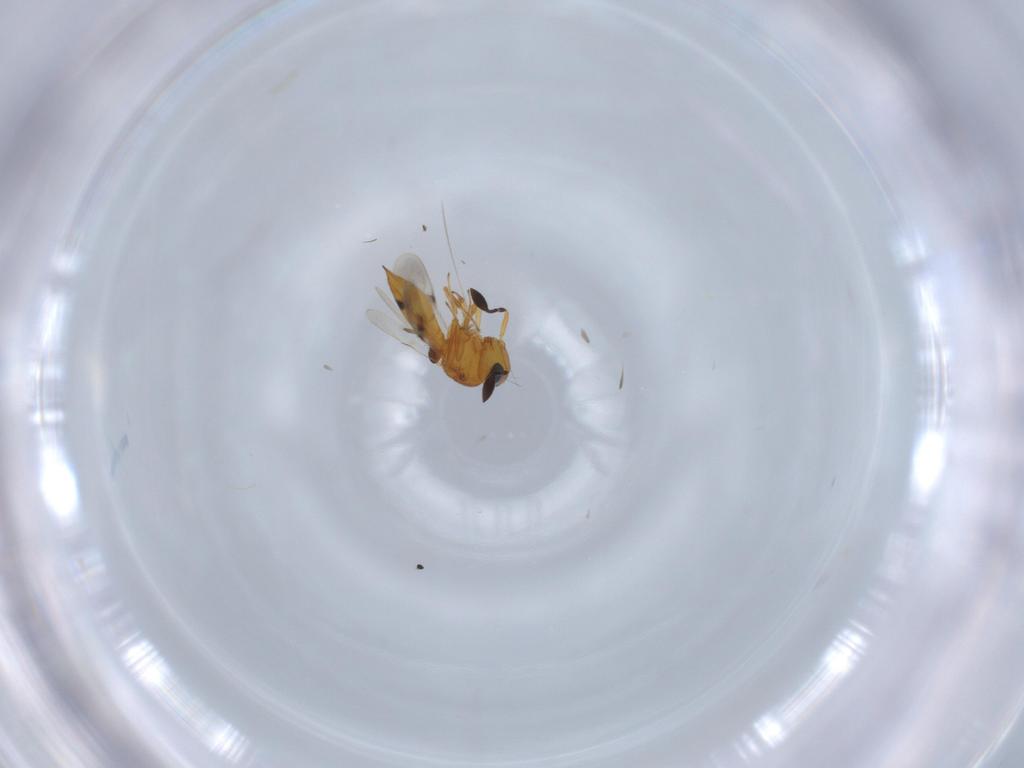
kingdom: Animalia
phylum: Arthropoda
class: Insecta
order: Hymenoptera
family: Scelionidae
